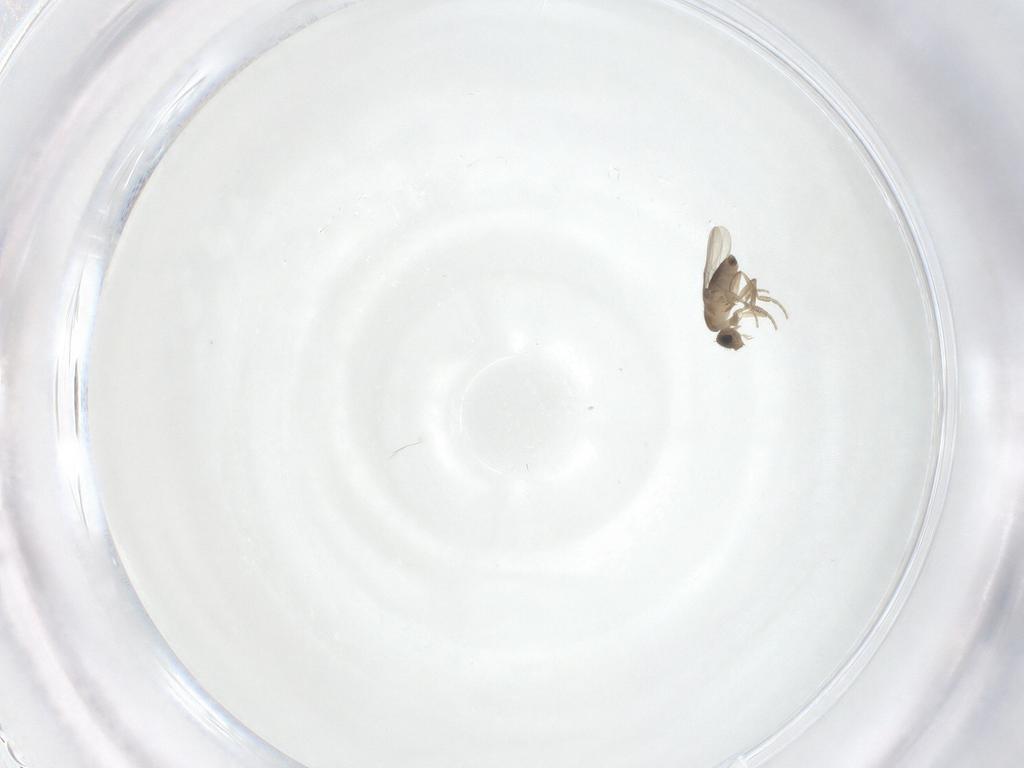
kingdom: Animalia
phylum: Arthropoda
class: Insecta
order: Diptera
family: Phoridae
